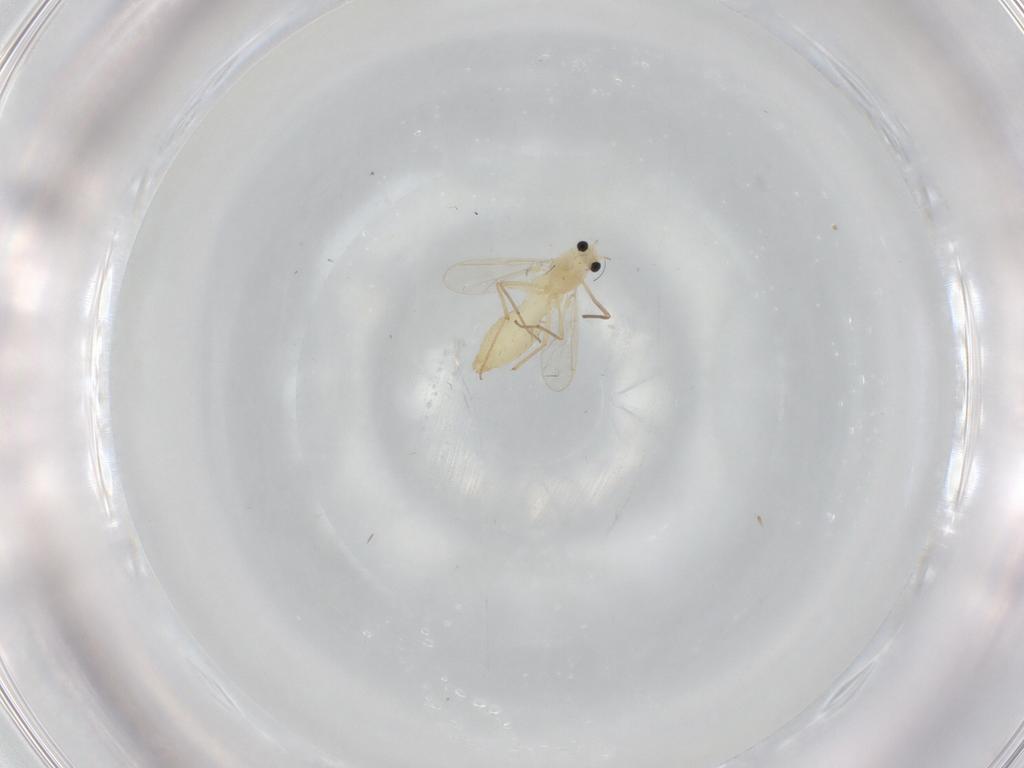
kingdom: Animalia
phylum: Arthropoda
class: Insecta
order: Diptera
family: Chironomidae
